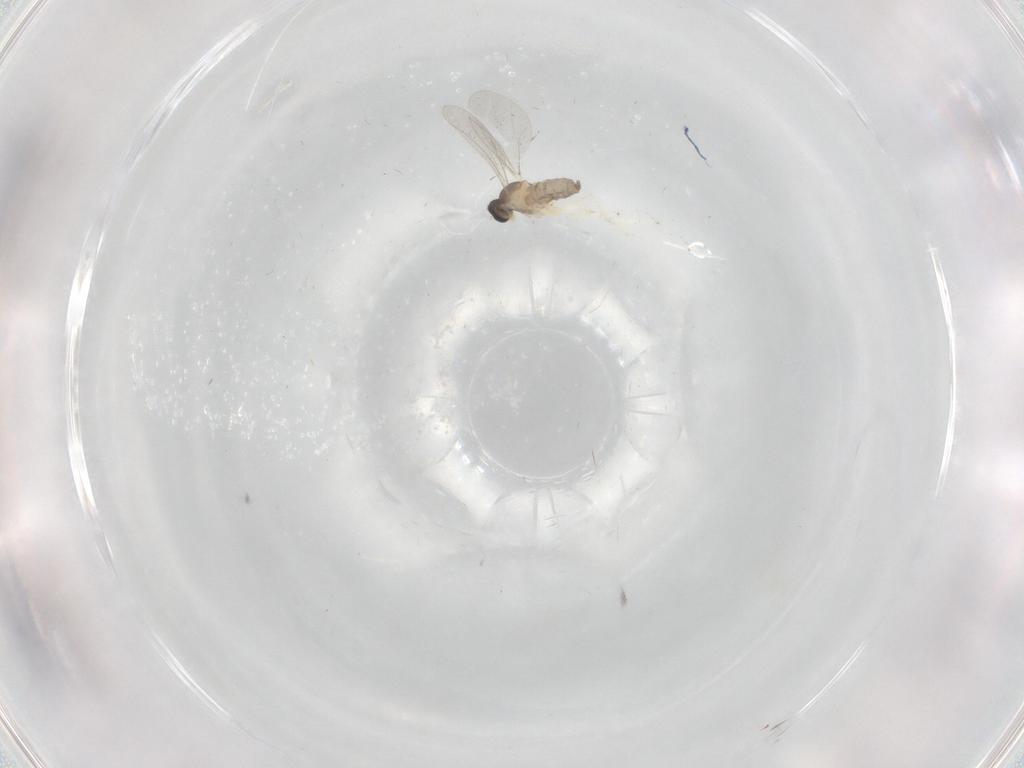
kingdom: Animalia
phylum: Arthropoda
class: Insecta
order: Diptera
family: Cecidomyiidae
